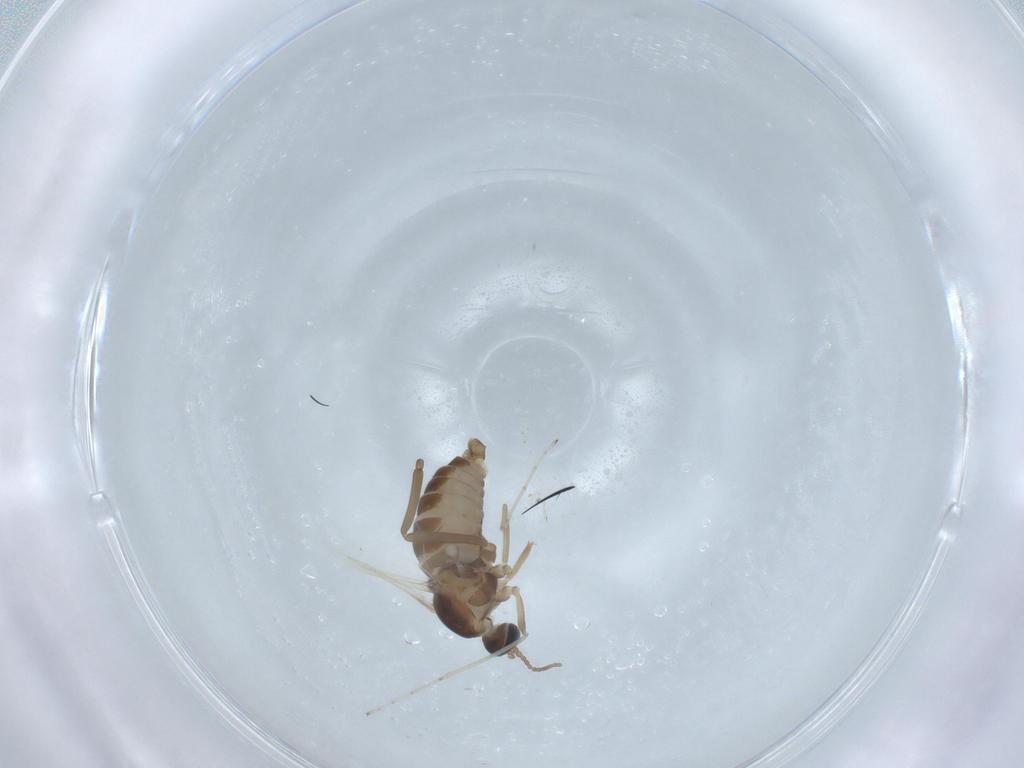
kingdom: Animalia
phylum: Arthropoda
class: Insecta
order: Diptera
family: Cecidomyiidae
